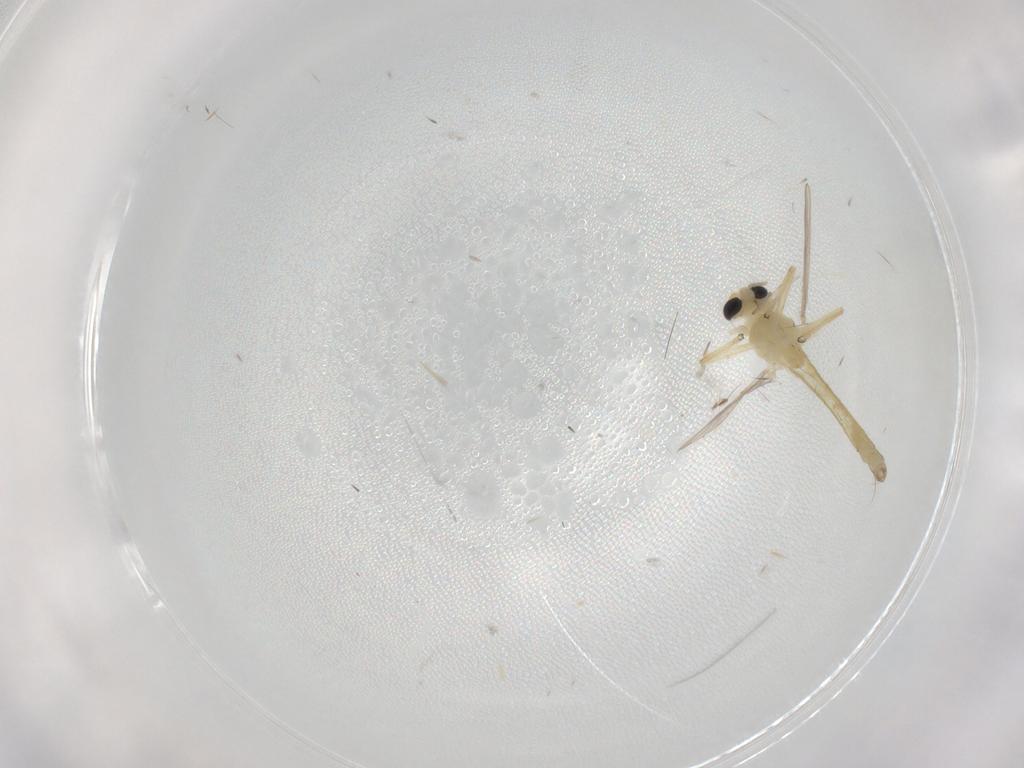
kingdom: Animalia
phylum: Arthropoda
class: Insecta
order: Diptera
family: Chironomidae
